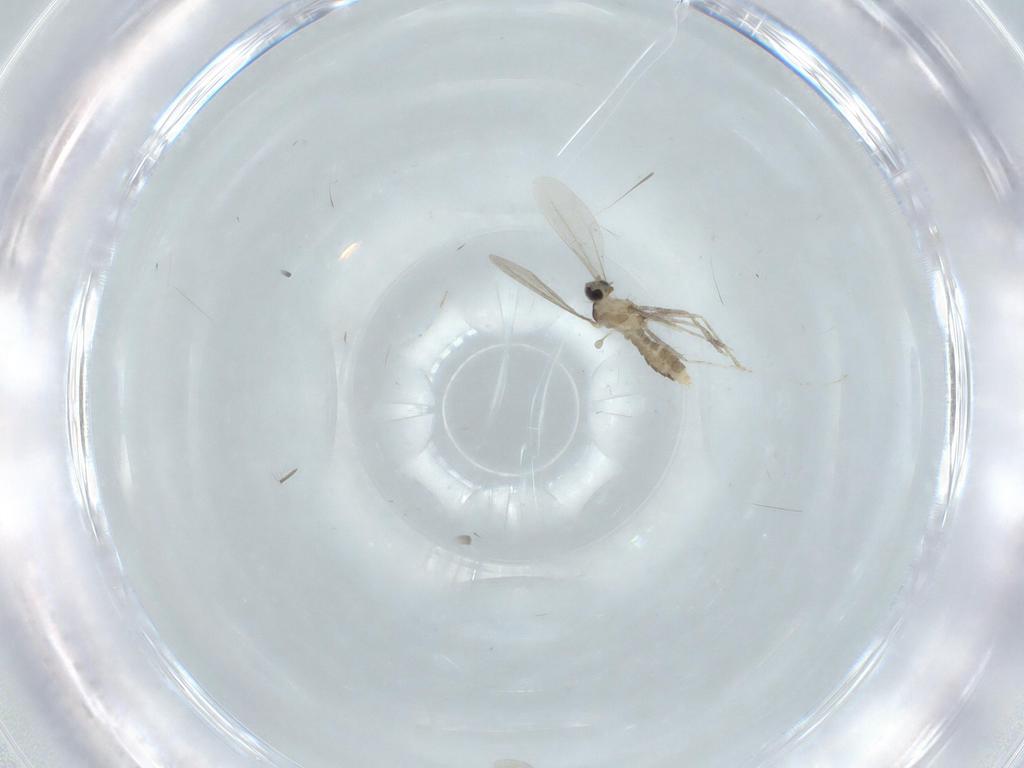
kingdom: Animalia
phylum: Arthropoda
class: Insecta
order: Diptera
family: Cecidomyiidae
